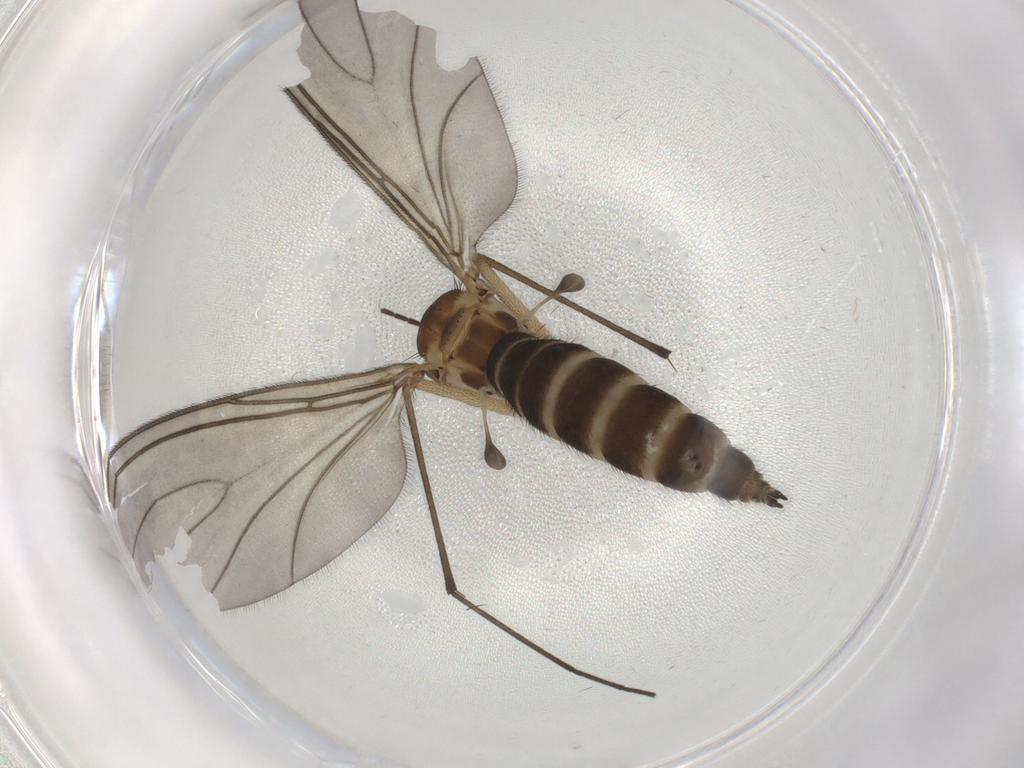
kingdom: Animalia
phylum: Arthropoda
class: Insecta
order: Diptera
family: Sciaridae
